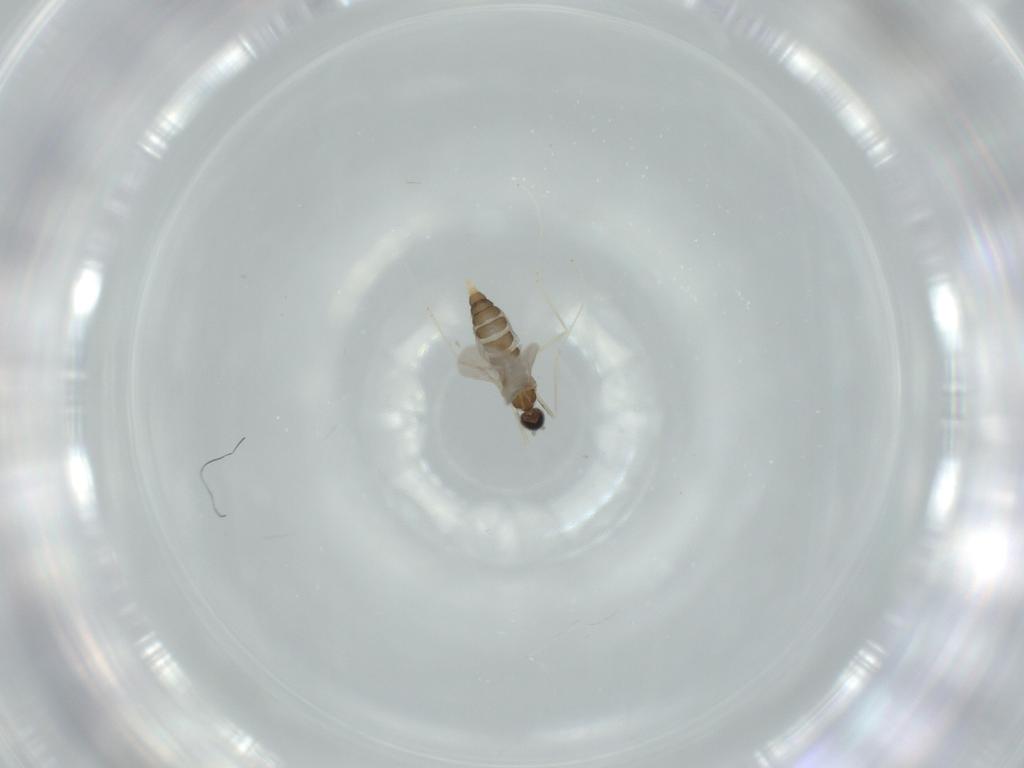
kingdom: Animalia
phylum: Arthropoda
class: Insecta
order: Diptera
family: Cecidomyiidae
